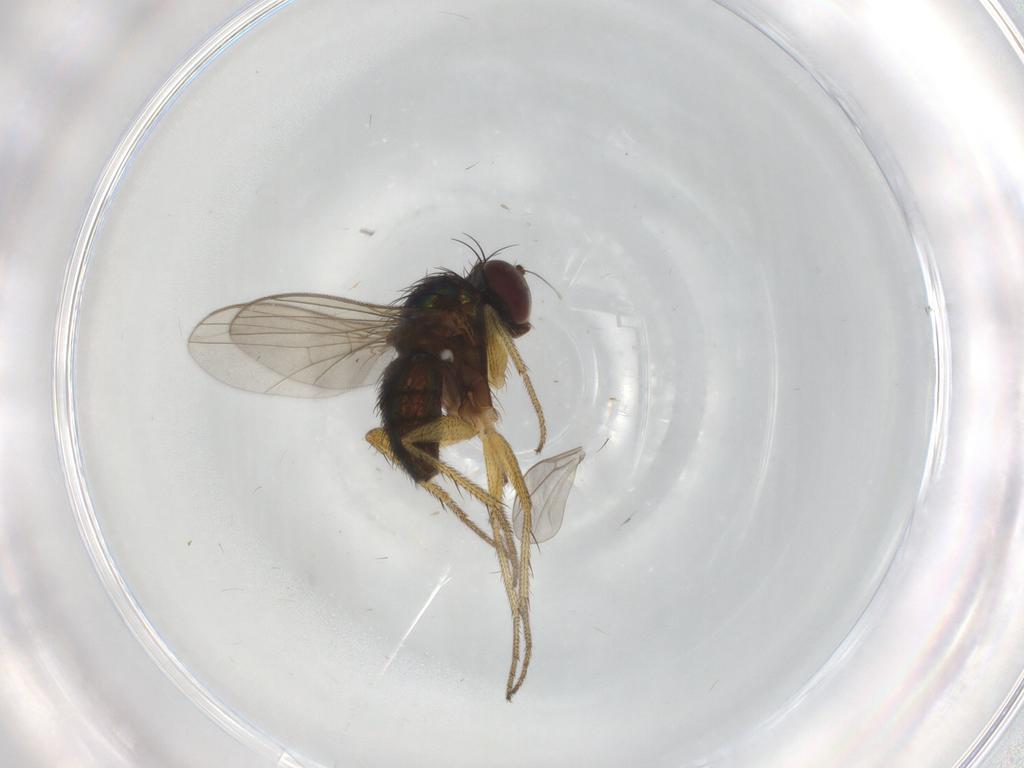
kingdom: Animalia
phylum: Arthropoda
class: Insecta
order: Diptera
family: Dolichopodidae
